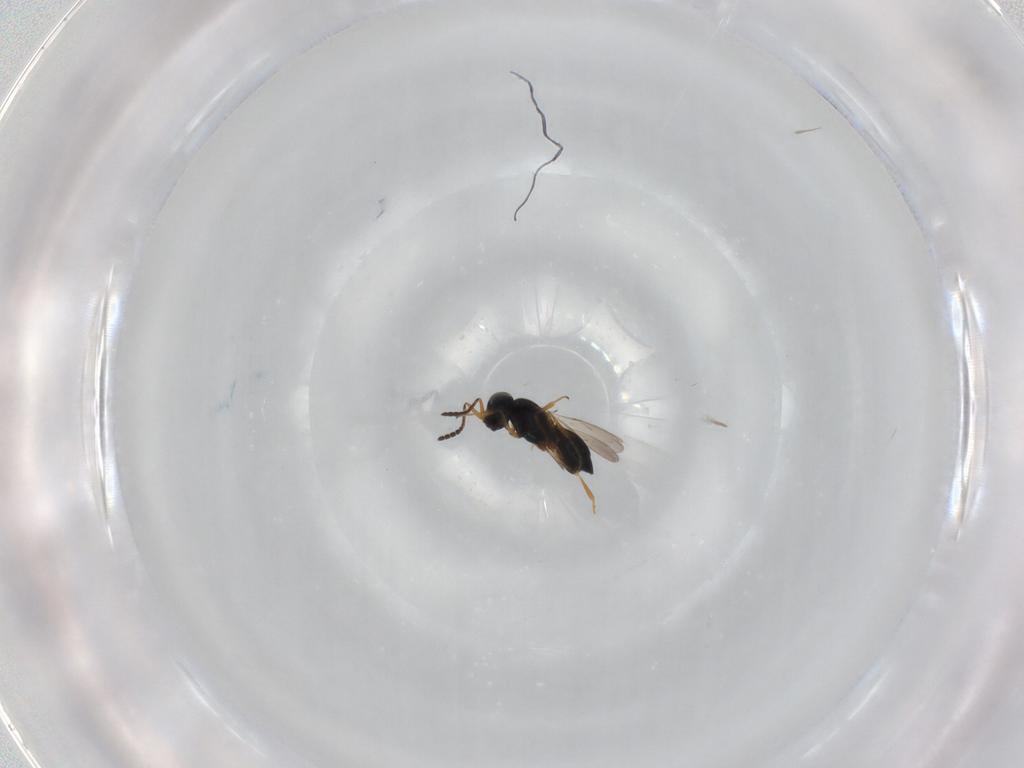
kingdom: Animalia
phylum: Arthropoda
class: Insecta
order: Hymenoptera
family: Scelionidae
